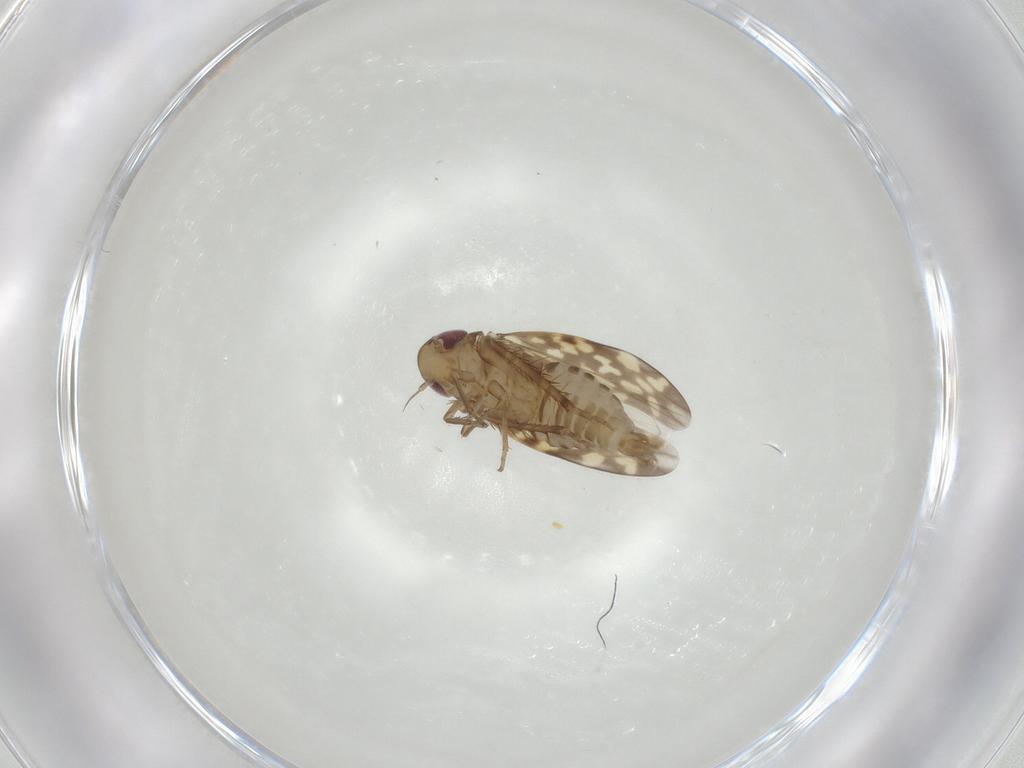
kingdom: Animalia
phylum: Arthropoda
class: Insecta
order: Hemiptera
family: Cicadellidae
